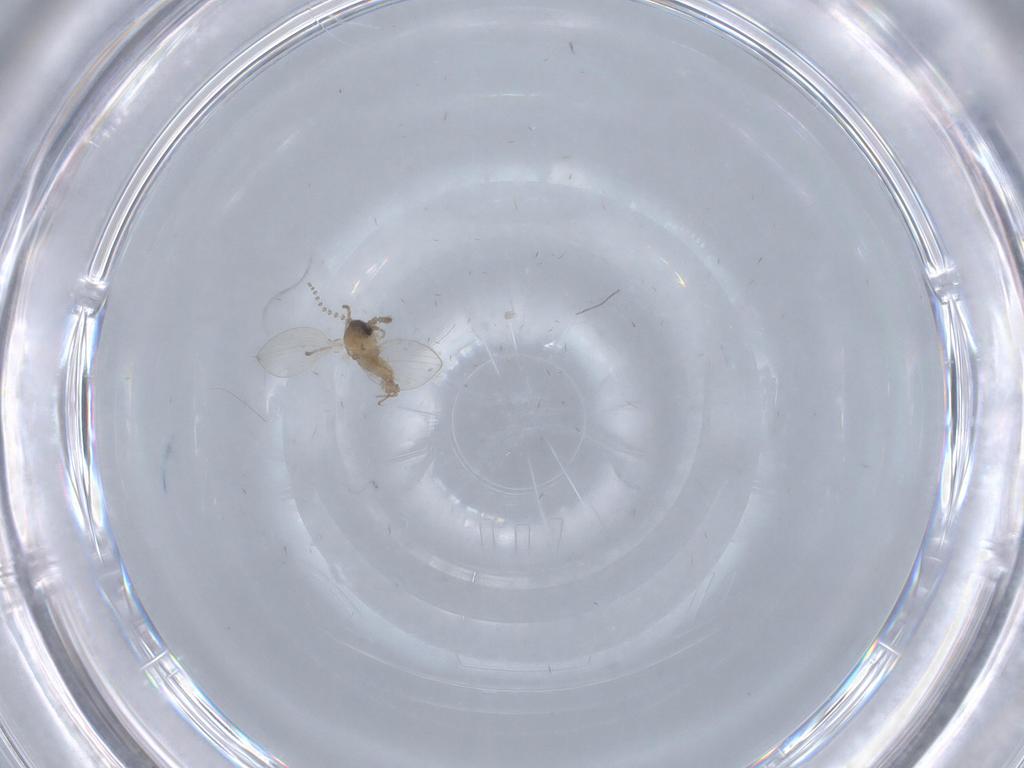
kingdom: Animalia
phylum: Arthropoda
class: Insecta
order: Diptera
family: Psychodidae
